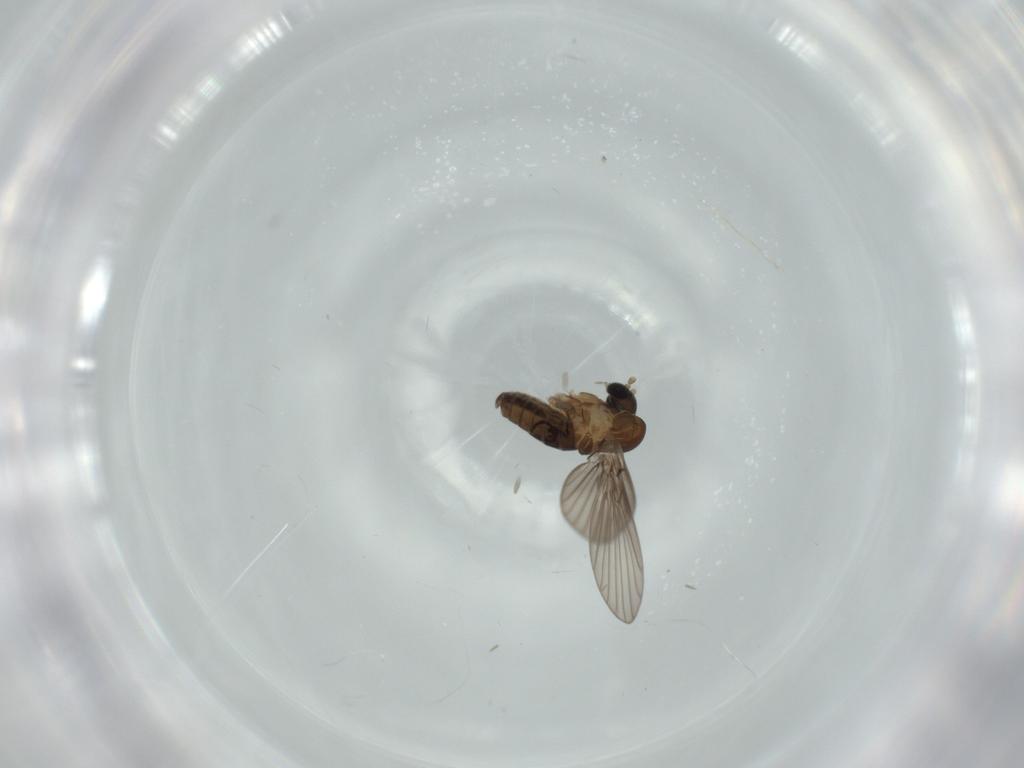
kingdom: Animalia
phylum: Arthropoda
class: Insecta
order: Diptera
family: Psychodidae
